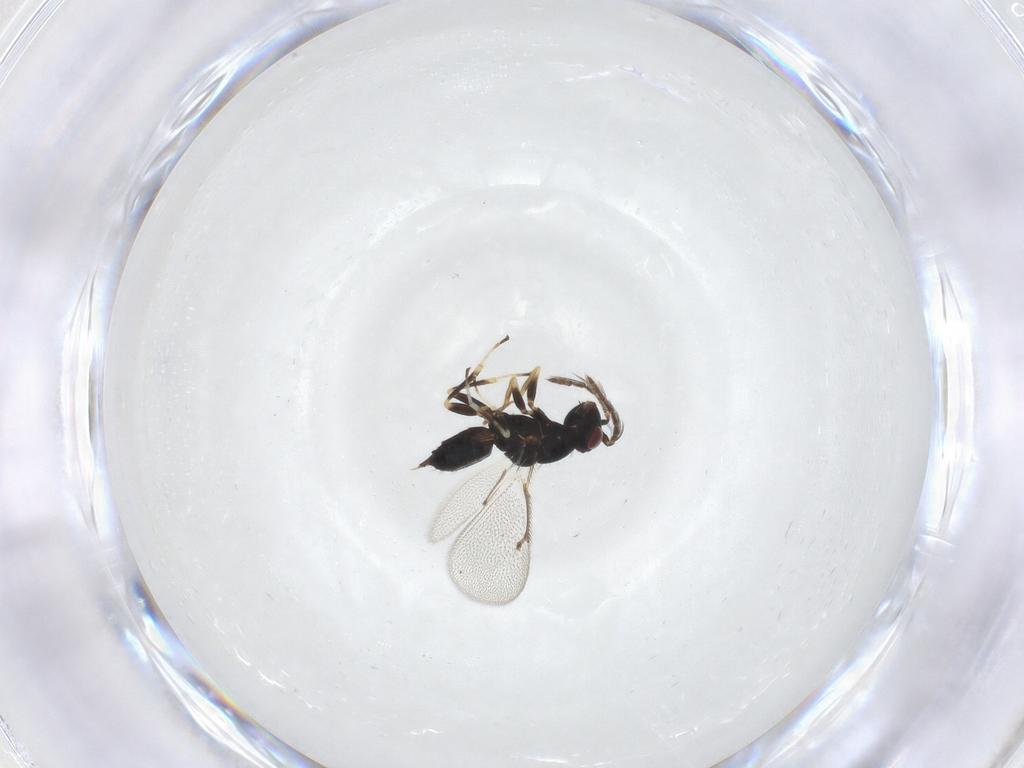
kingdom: Animalia
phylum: Arthropoda
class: Insecta
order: Hymenoptera
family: Eulophidae
